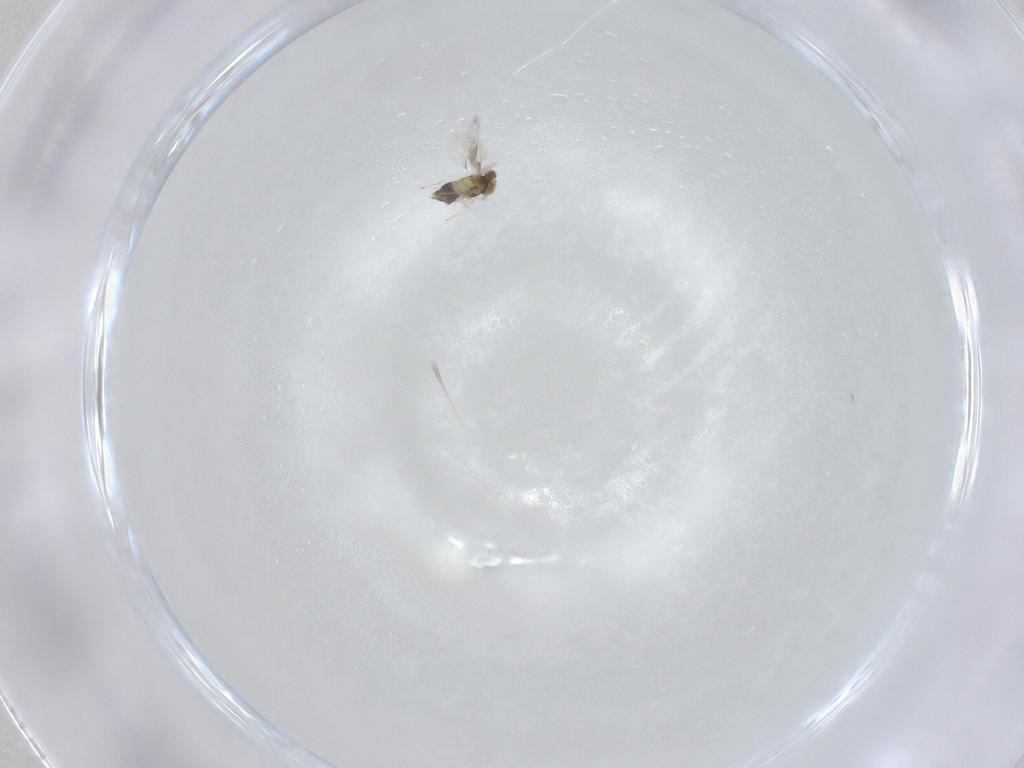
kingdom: Animalia
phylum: Arthropoda
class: Insecta
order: Hymenoptera
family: Aphelinidae
